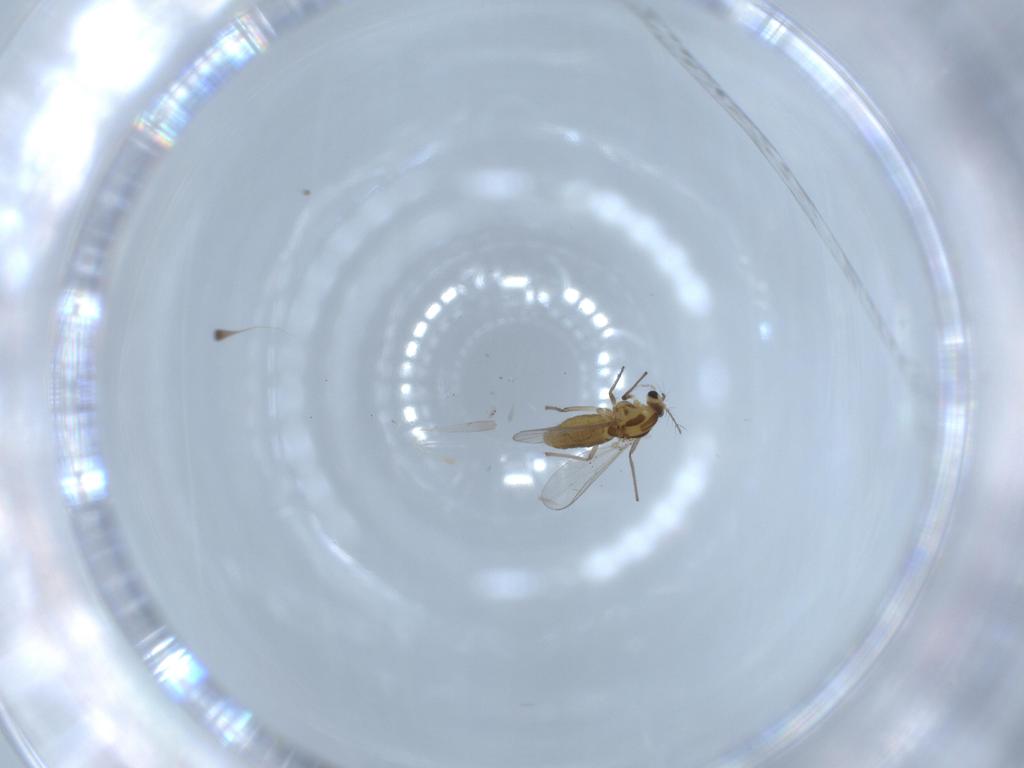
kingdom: Animalia
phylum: Arthropoda
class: Insecta
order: Diptera
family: Chironomidae
